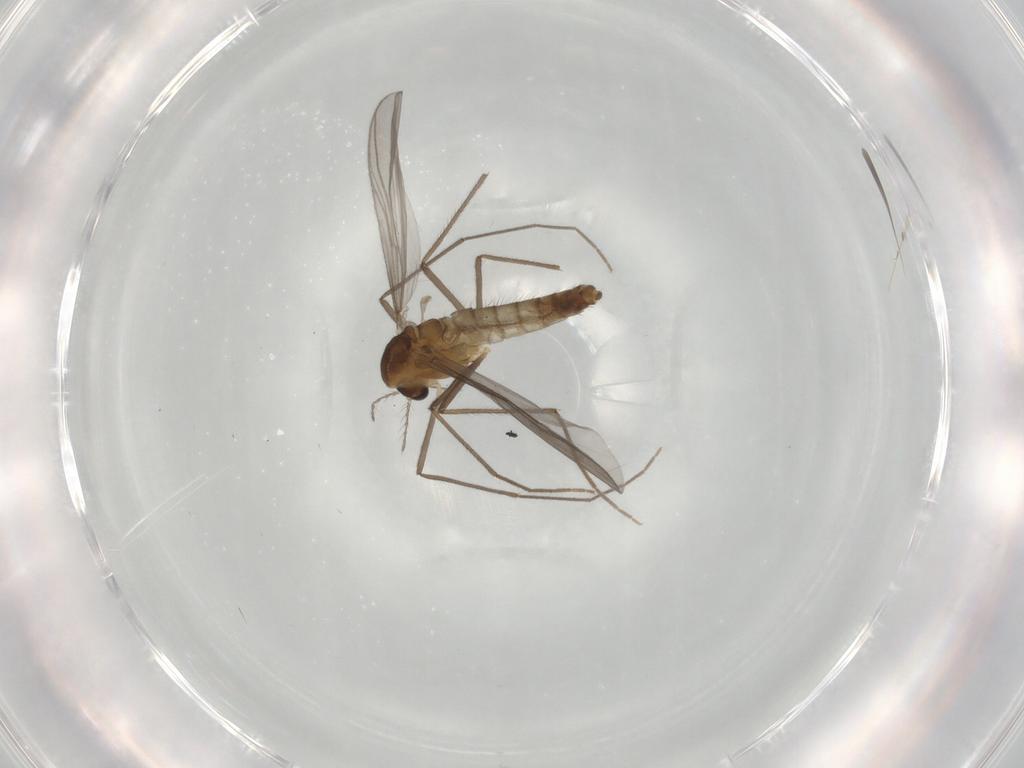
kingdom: Animalia
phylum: Arthropoda
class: Insecta
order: Diptera
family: Chironomidae
